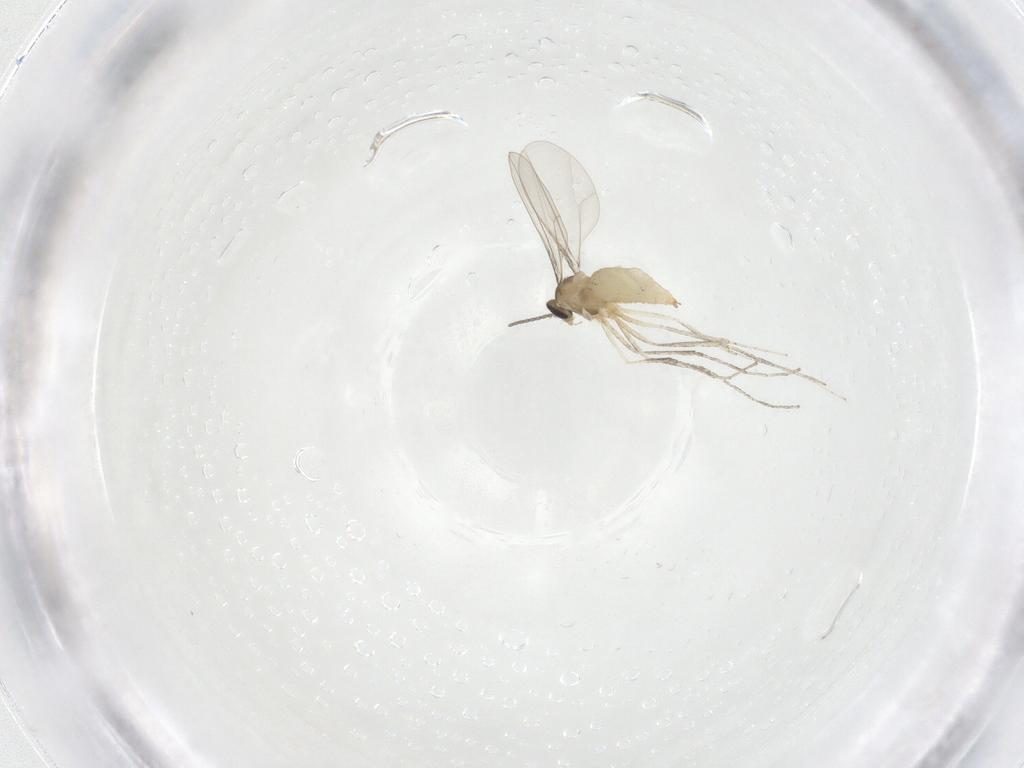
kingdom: Animalia
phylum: Arthropoda
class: Insecta
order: Diptera
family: Cecidomyiidae
